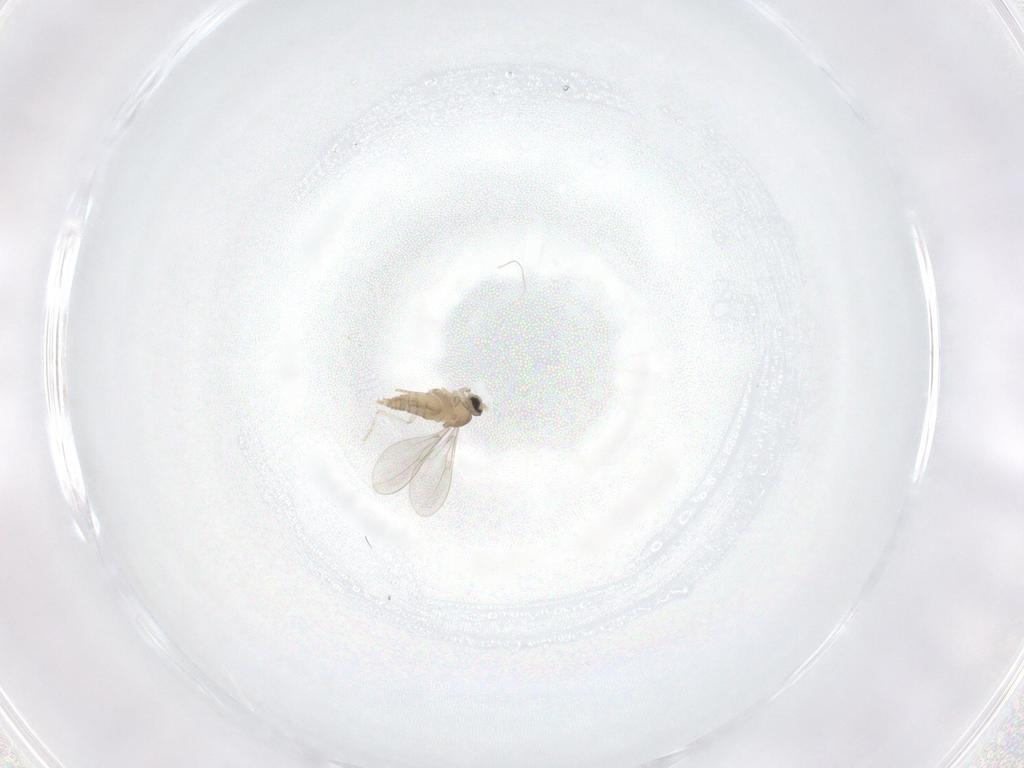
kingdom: Animalia
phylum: Arthropoda
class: Insecta
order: Diptera
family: Cecidomyiidae
